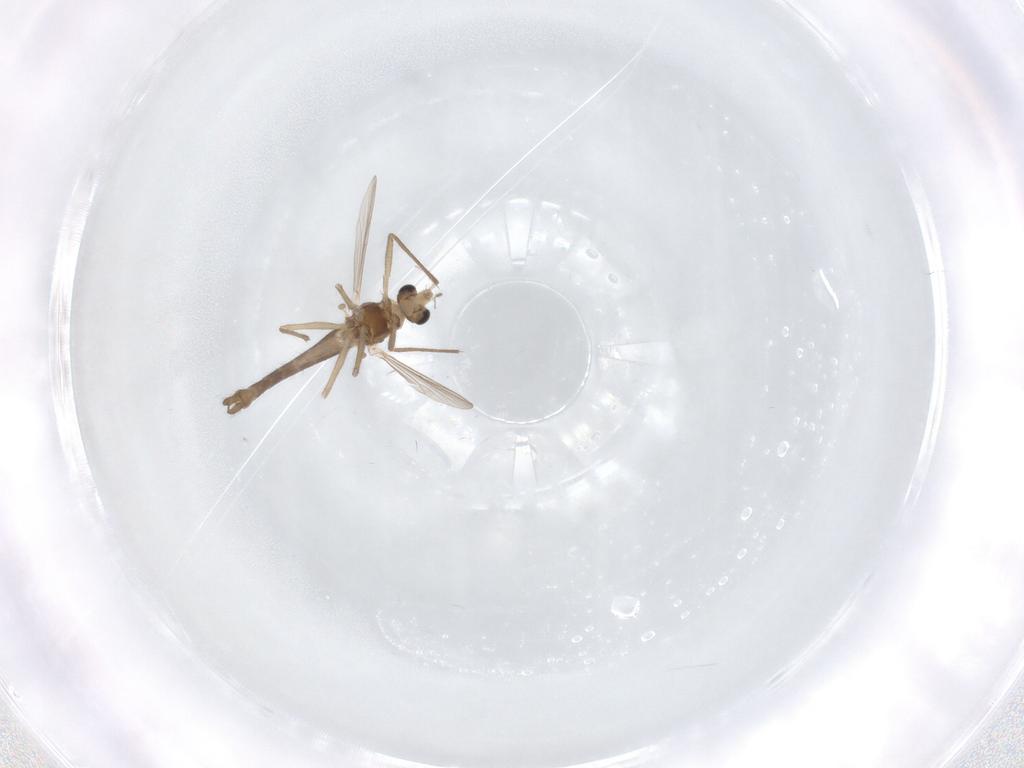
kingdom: Animalia
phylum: Arthropoda
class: Insecta
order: Diptera
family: Chironomidae
